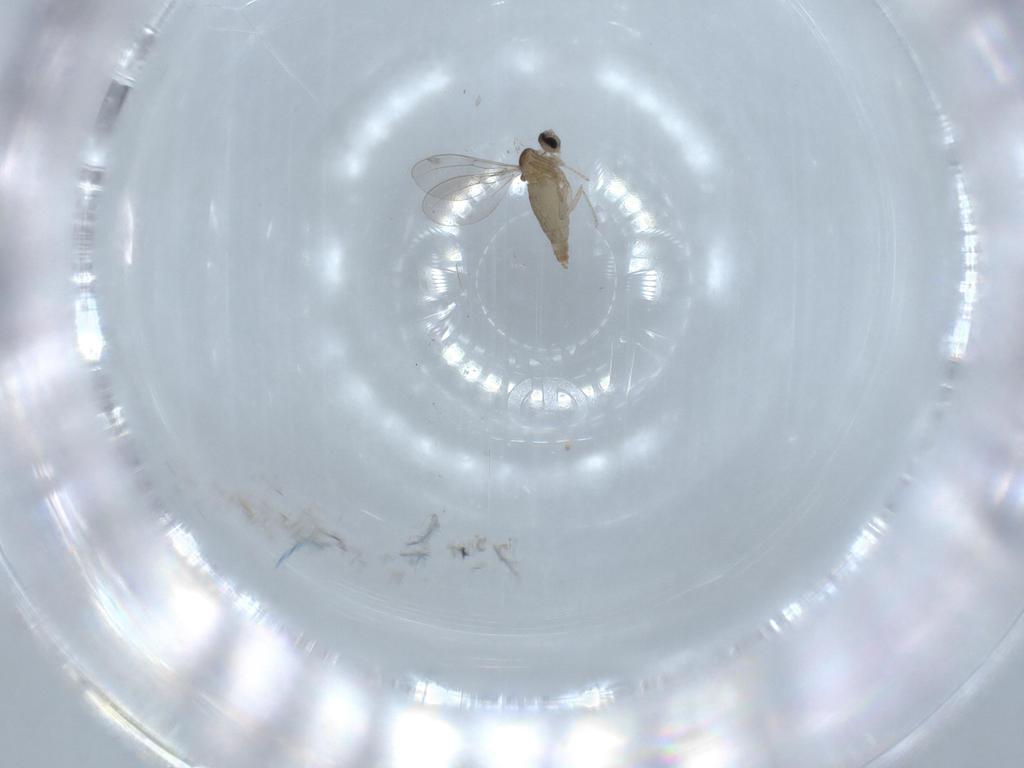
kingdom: Animalia
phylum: Arthropoda
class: Insecta
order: Diptera
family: Cecidomyiidae
